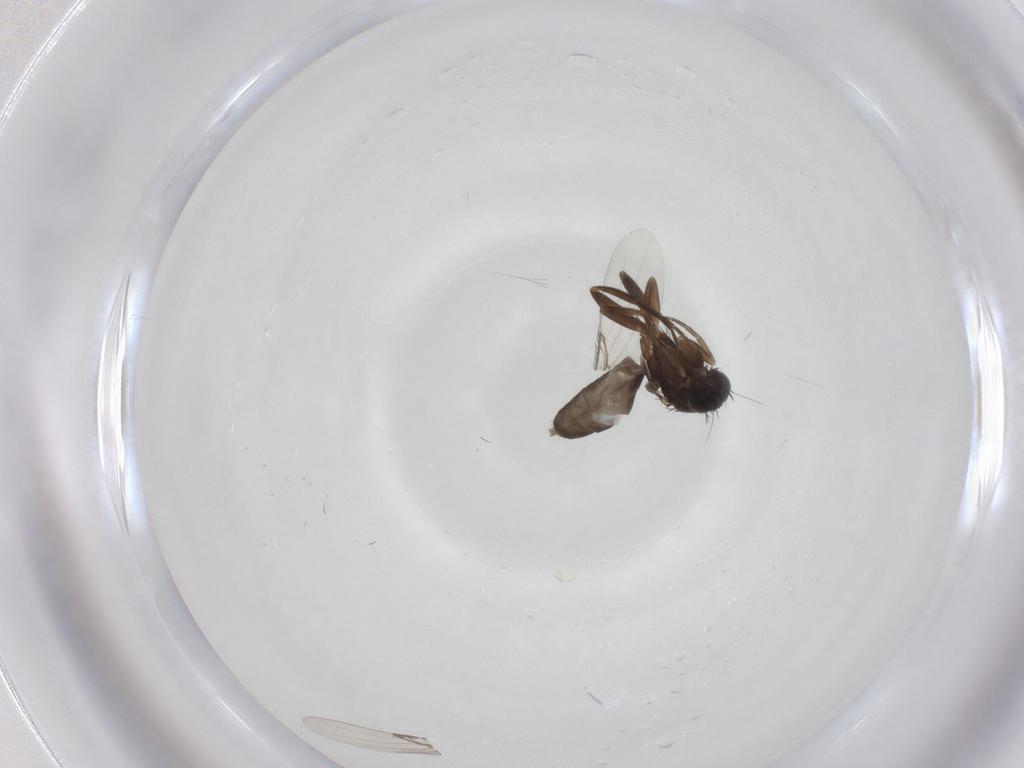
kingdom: Animalia
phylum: Arthropoda
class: Insecta
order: Diptera
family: Phoridae
